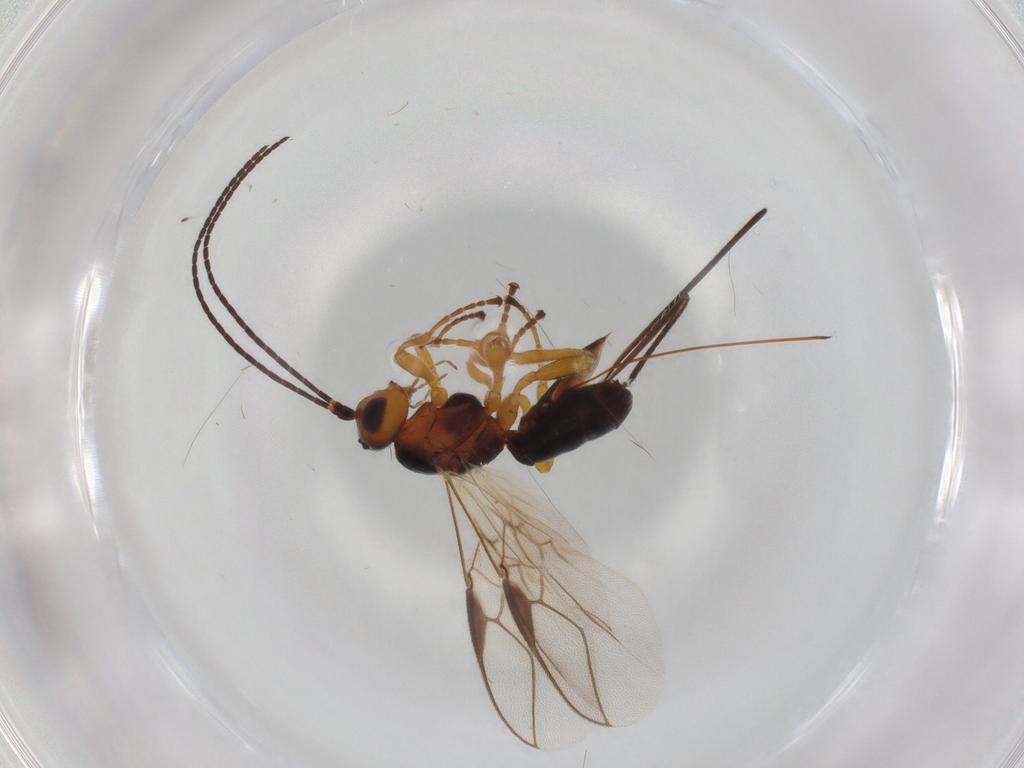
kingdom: Animalia
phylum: Arthropoda
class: Insecta
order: Hymenoptera
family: Braconidae
